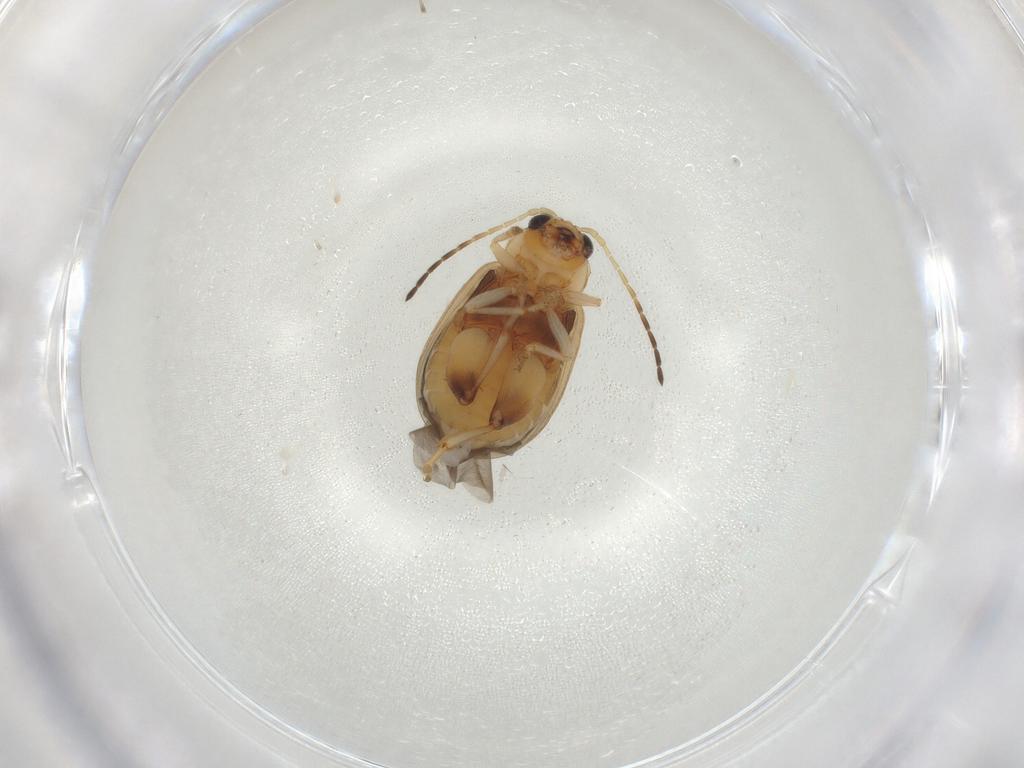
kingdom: Animalia
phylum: Arthropoda
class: Insecta
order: Coleoptera
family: Chrysomelidae
